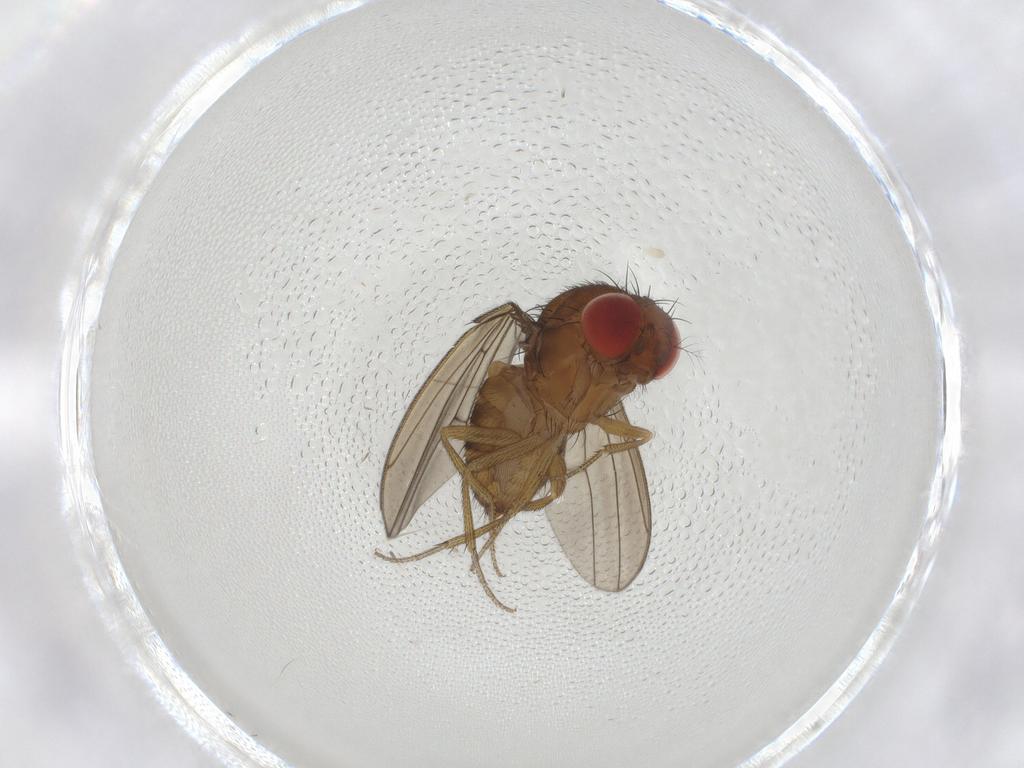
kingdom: Animalia
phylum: Arthropoda
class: Insecta
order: Diptera
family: Drosophilidae
